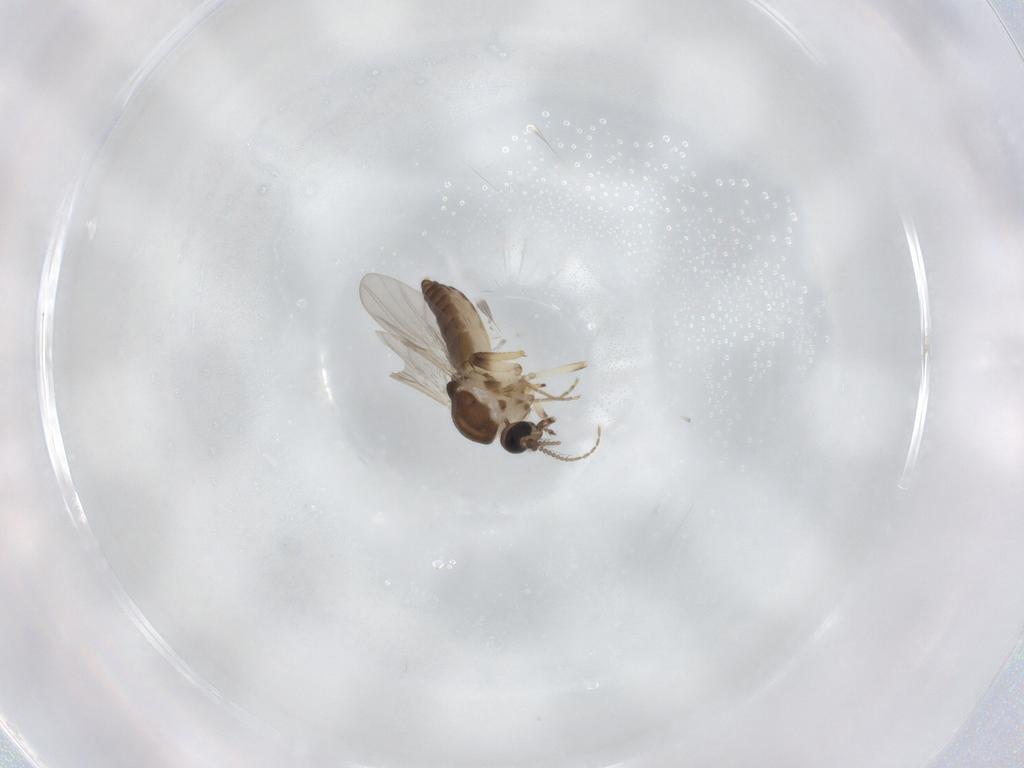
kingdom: Animalia
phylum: Arthropoda
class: Insecta
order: Diptera
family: Ceratopogonidae
